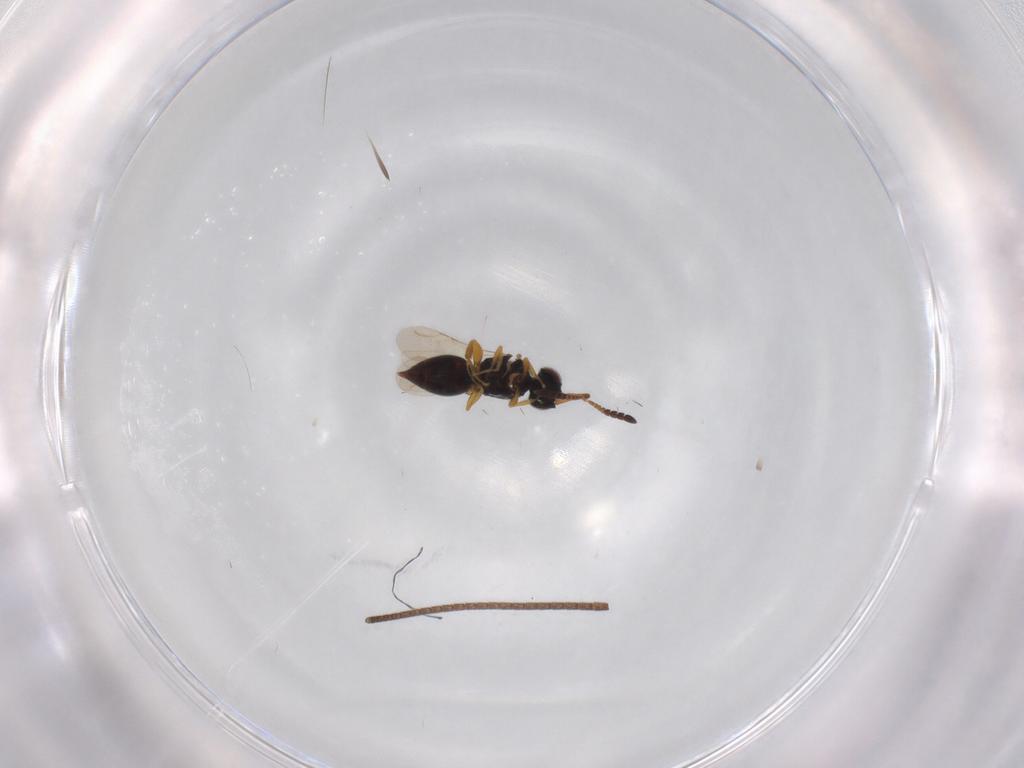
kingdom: Animalia
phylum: Arthropoda
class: Insecta
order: Hymenoptera
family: Ichneumonidae
